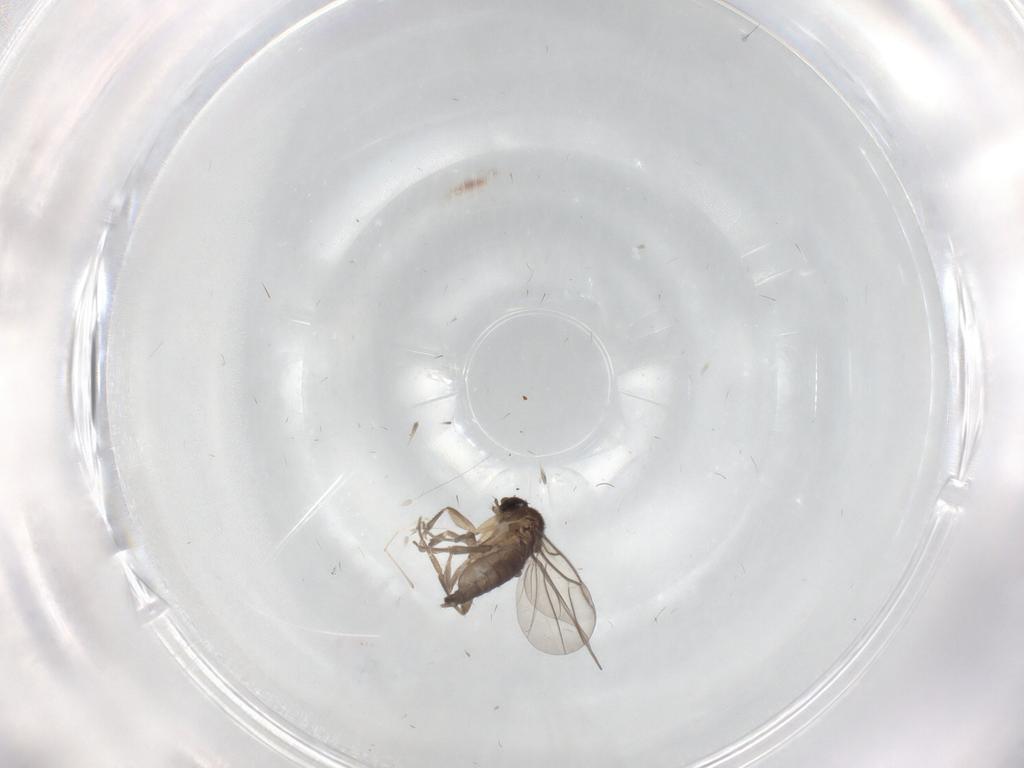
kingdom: Animalia
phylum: Arthropoda
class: Insecta
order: Diptera
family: Phoridae
